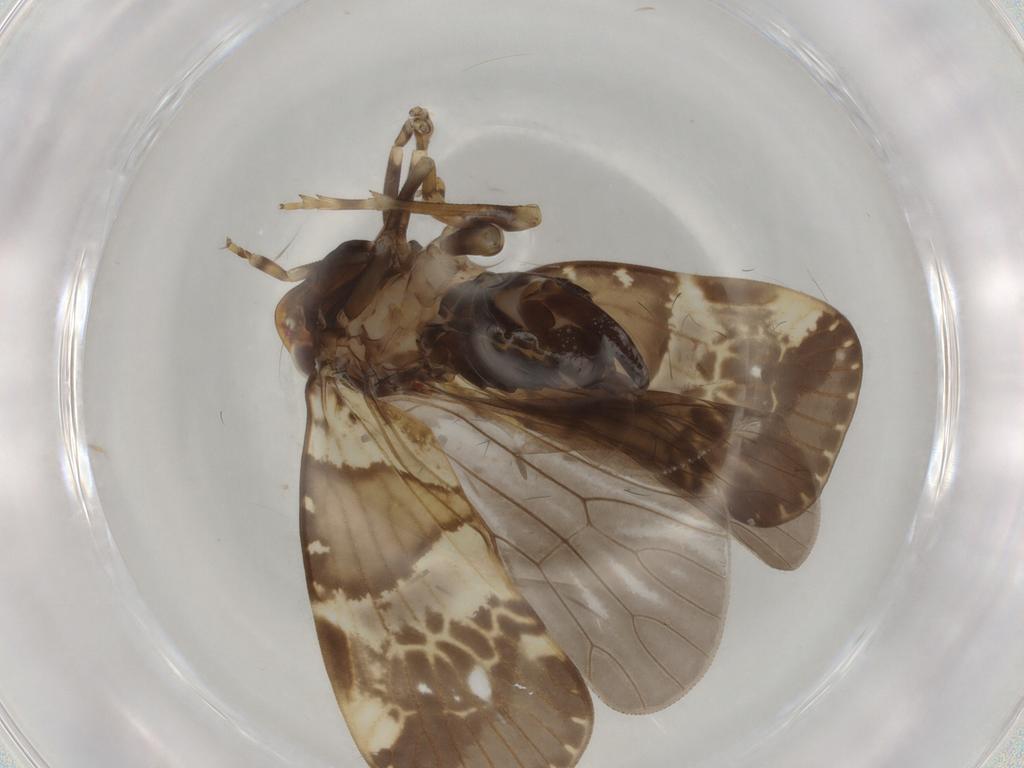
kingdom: Animalia
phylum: Arthropoda
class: Insecta
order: Hemiptera
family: Cixiidae
